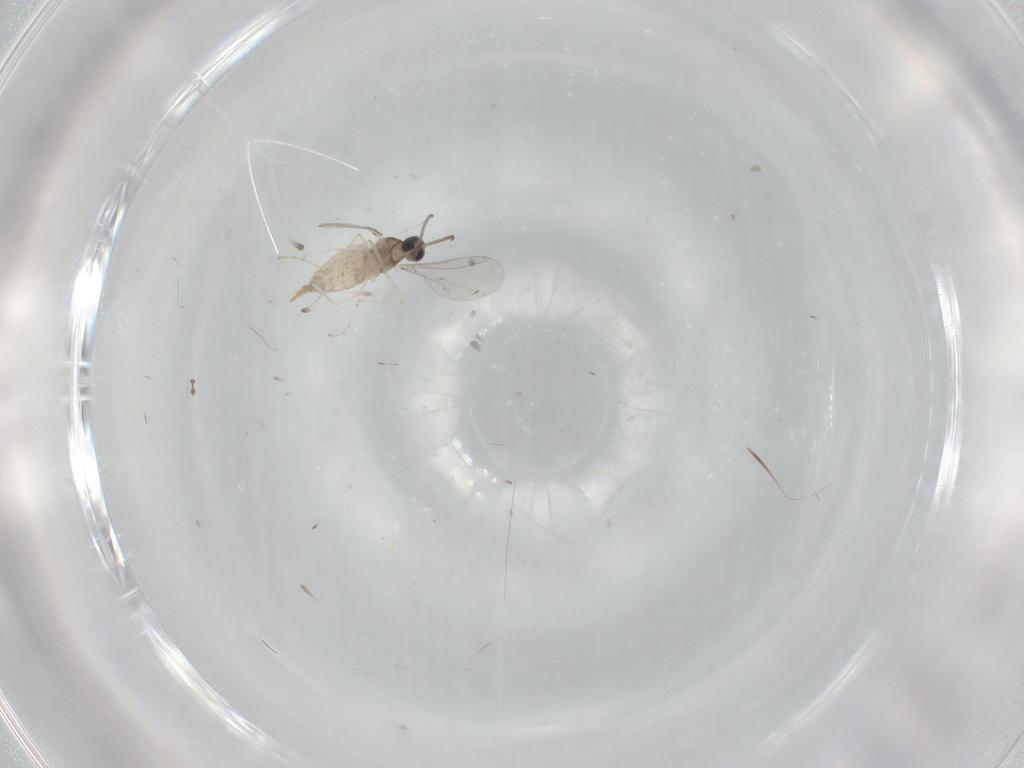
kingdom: Animalia
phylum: Arthropoda
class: Insecta
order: Diptera
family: Cecidomyiidae
